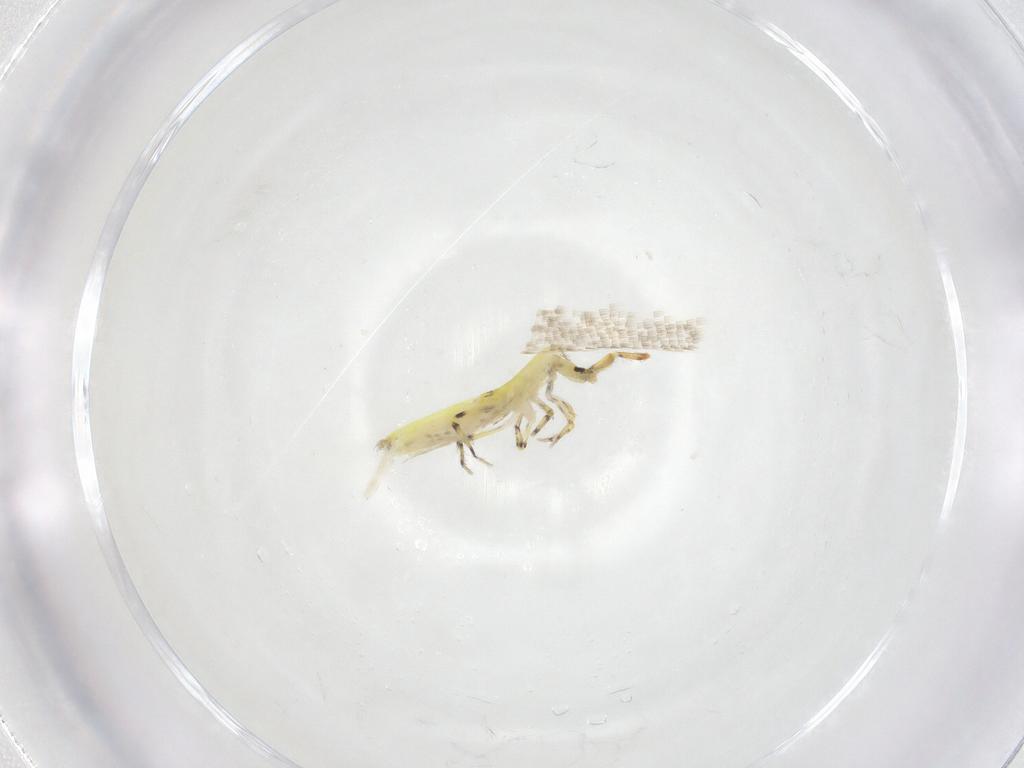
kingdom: Animalia
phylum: Arthropoda
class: Collembola
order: Entomobryomorpha
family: Entomobryidae
